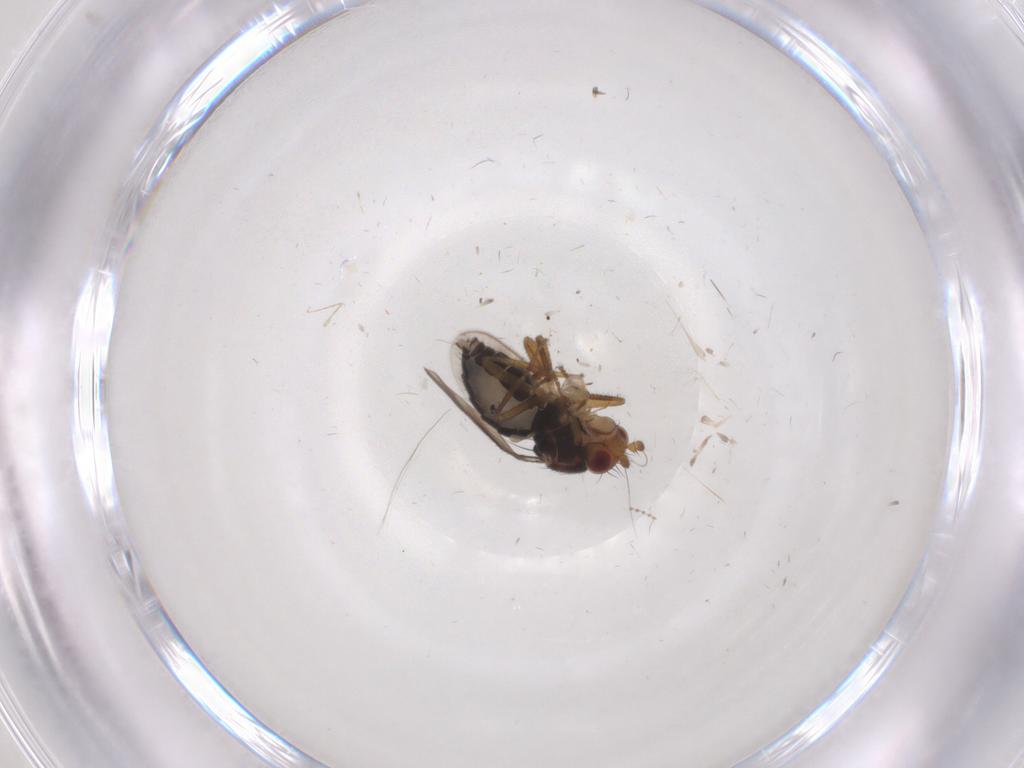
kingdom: Animalia
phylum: Arthropoda
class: Insecta
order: Diptera
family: Sphaeroceridae
